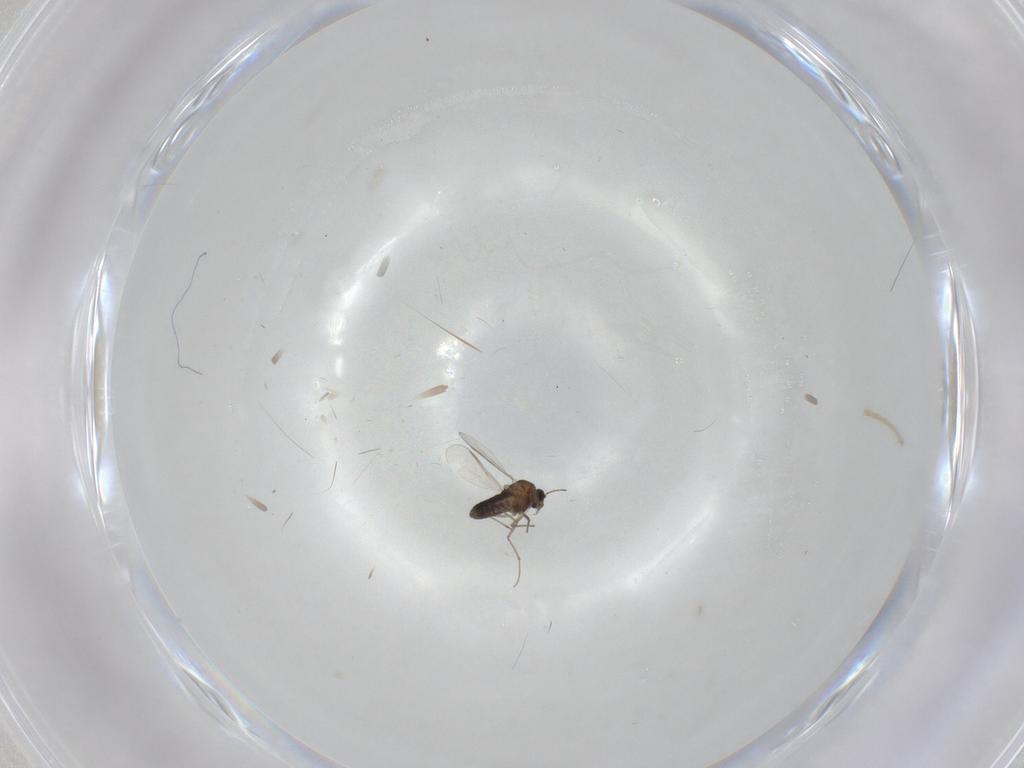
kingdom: Animalia
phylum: Arthropoda
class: Insecta
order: Diptera
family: Chironomidae
